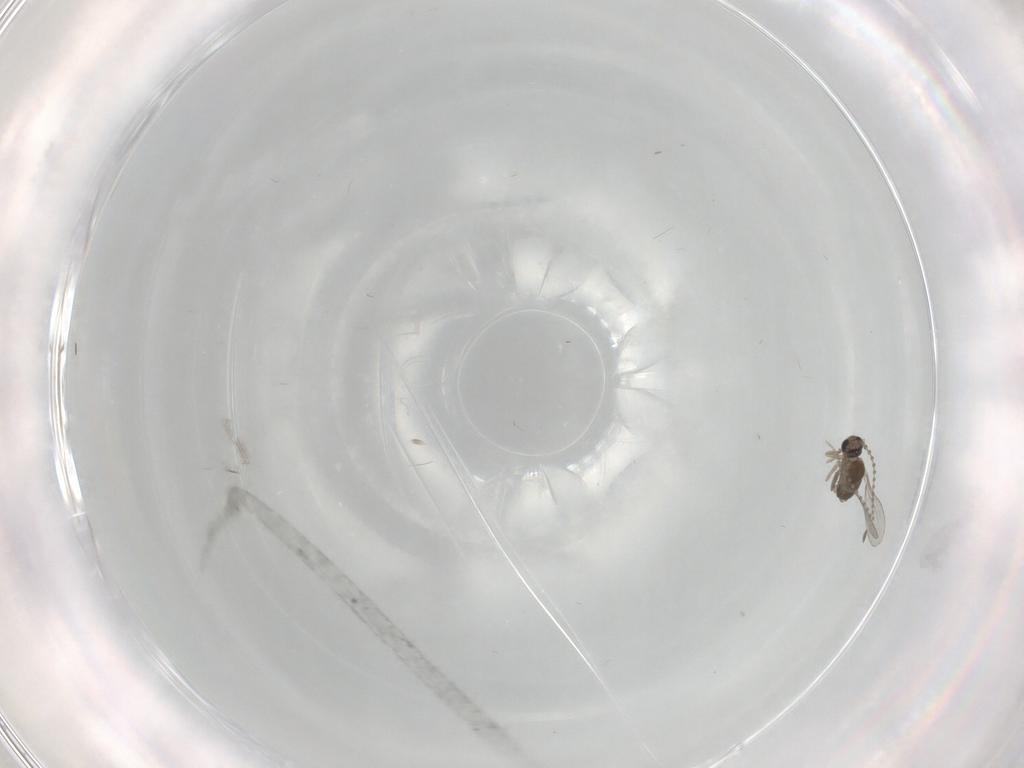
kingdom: Animalia
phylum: Arthropoda
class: Insecta
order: Diptera
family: Cecidomyiidae
